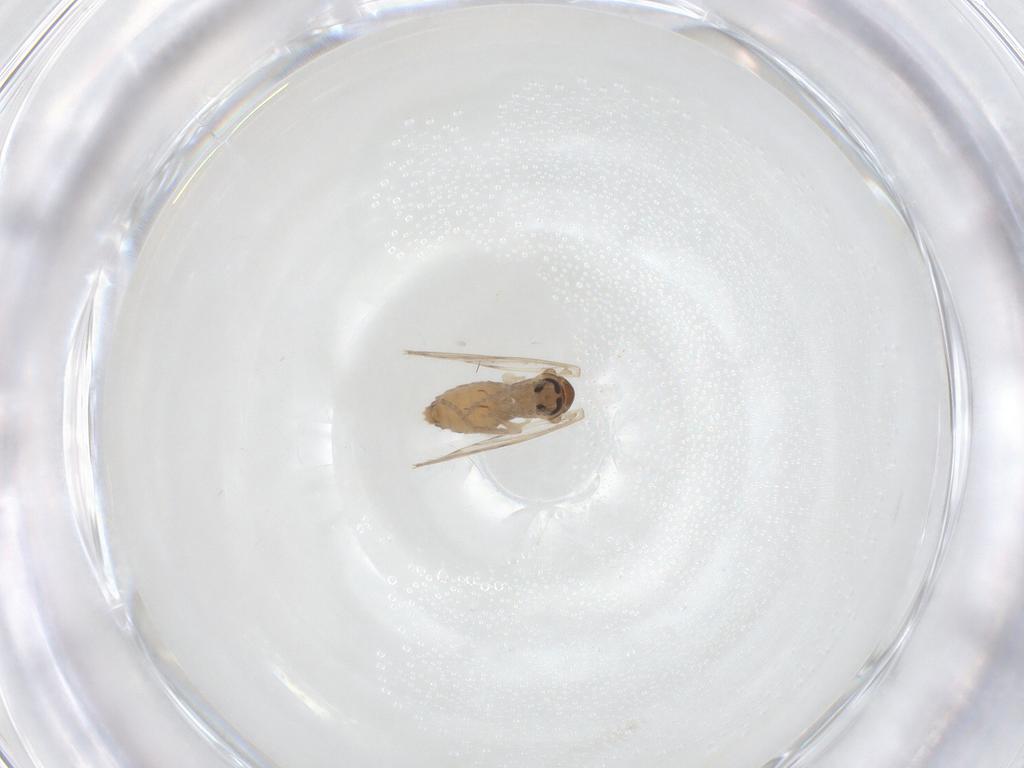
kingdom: Animalia
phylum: Arthropoda
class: Insecta
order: Diptera
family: Psychodidae
